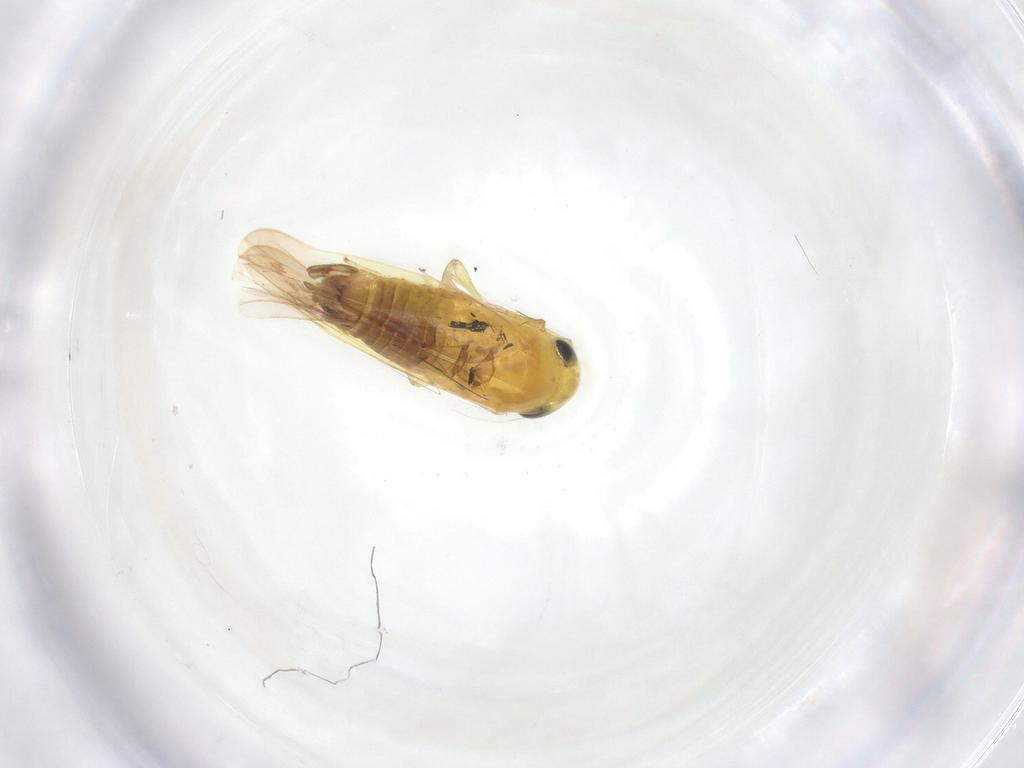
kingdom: Animalia
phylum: Arthropoda
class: Insecta
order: Hemiptera
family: Cicadellidae
